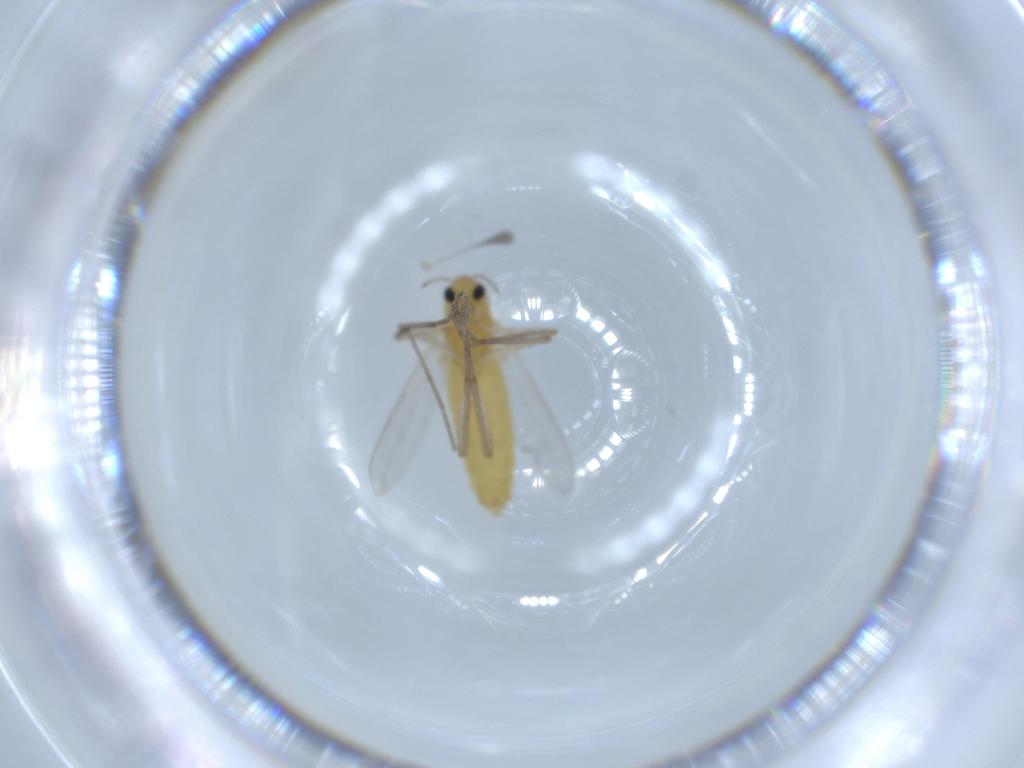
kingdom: Animalia
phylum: Arthropoda
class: Insecta
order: Diptera
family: Chironomidae
